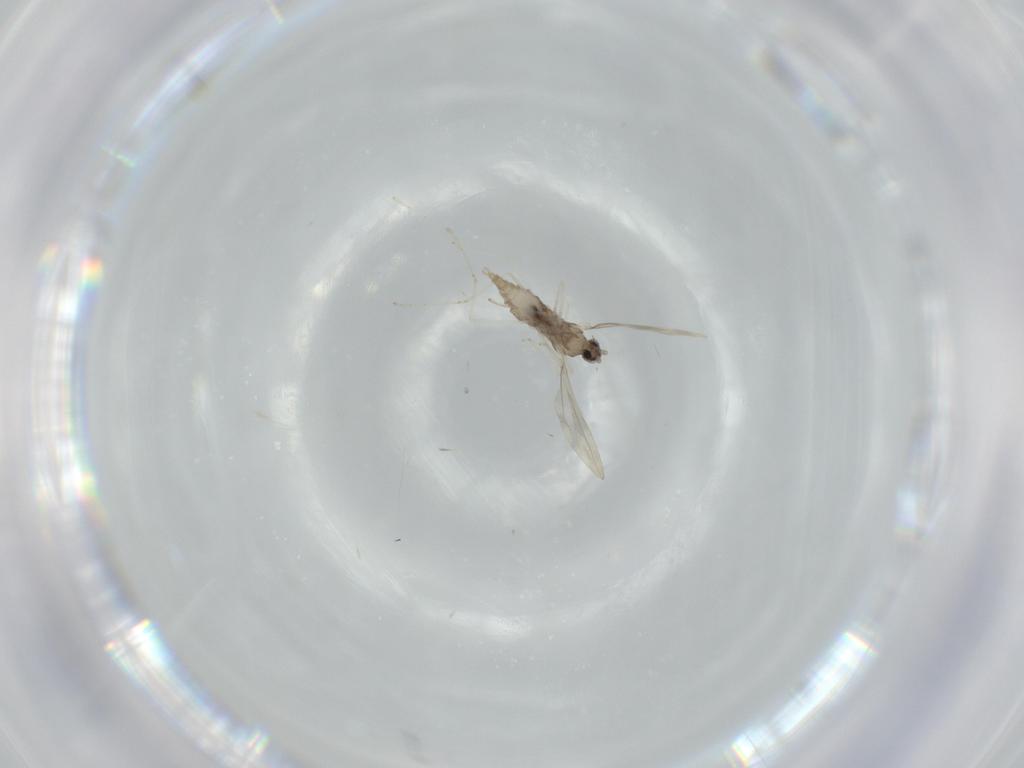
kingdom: Animalia
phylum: Arthropoda
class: Insecta
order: Diptera
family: Cecidomyiidae
